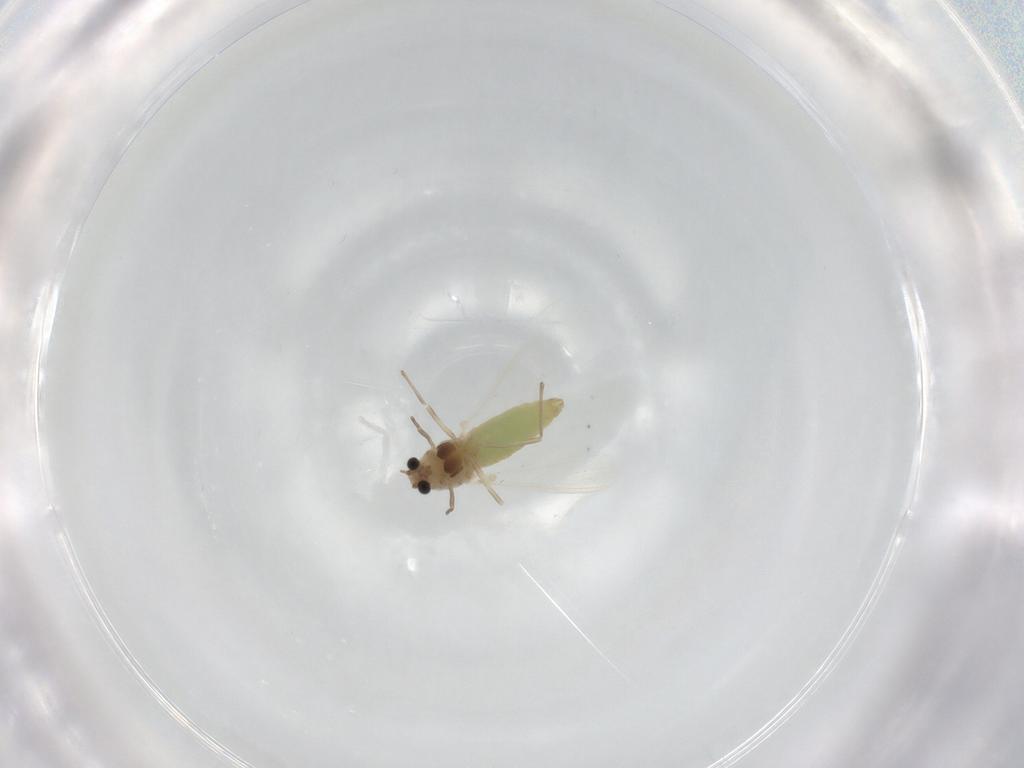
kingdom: Animalia
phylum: Arthropoda
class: Insecta
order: Diptera
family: Chironomidae
